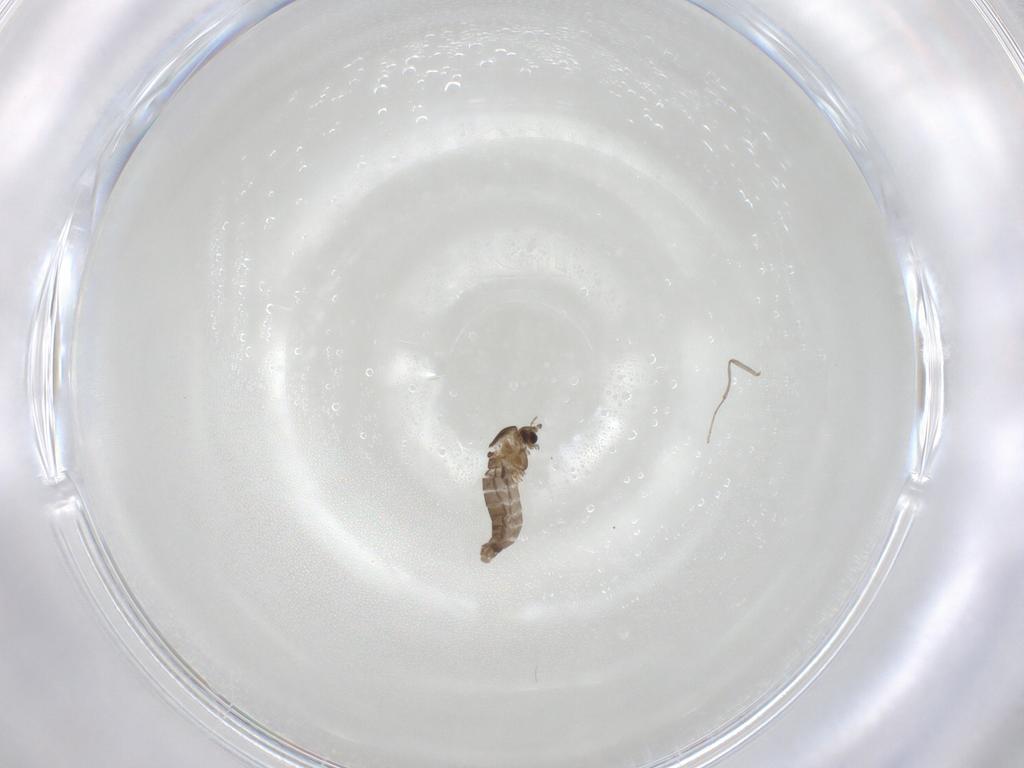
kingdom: Animalia
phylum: Arthropoda
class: Insecta
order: Diptera
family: Chironomidae
